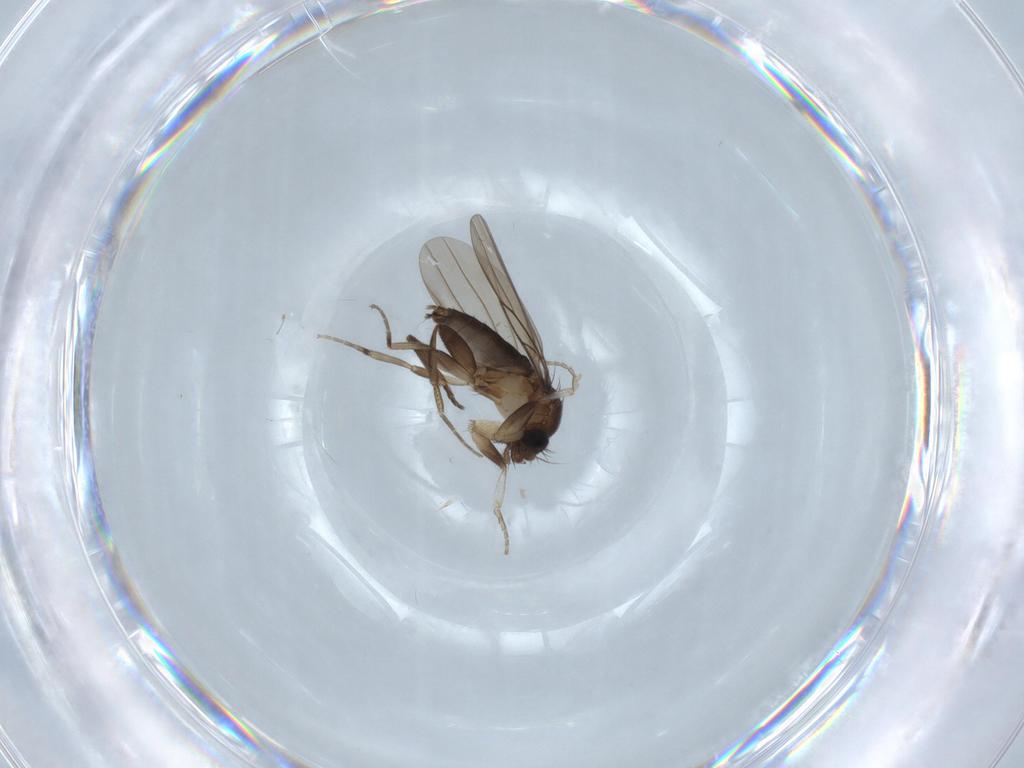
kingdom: Animalia
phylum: Arthropoda
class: Insecta
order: Diptera
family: Phoridae
